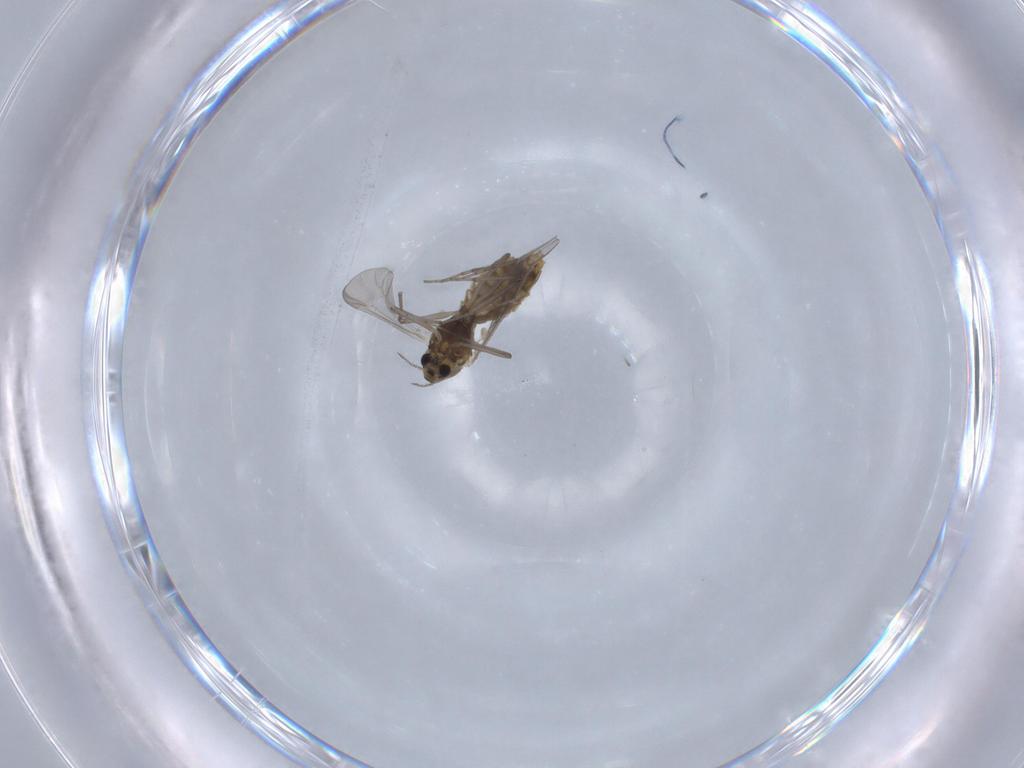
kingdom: Animalia
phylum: Arthropoda
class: Insecta
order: Diptera
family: Chironomidae
